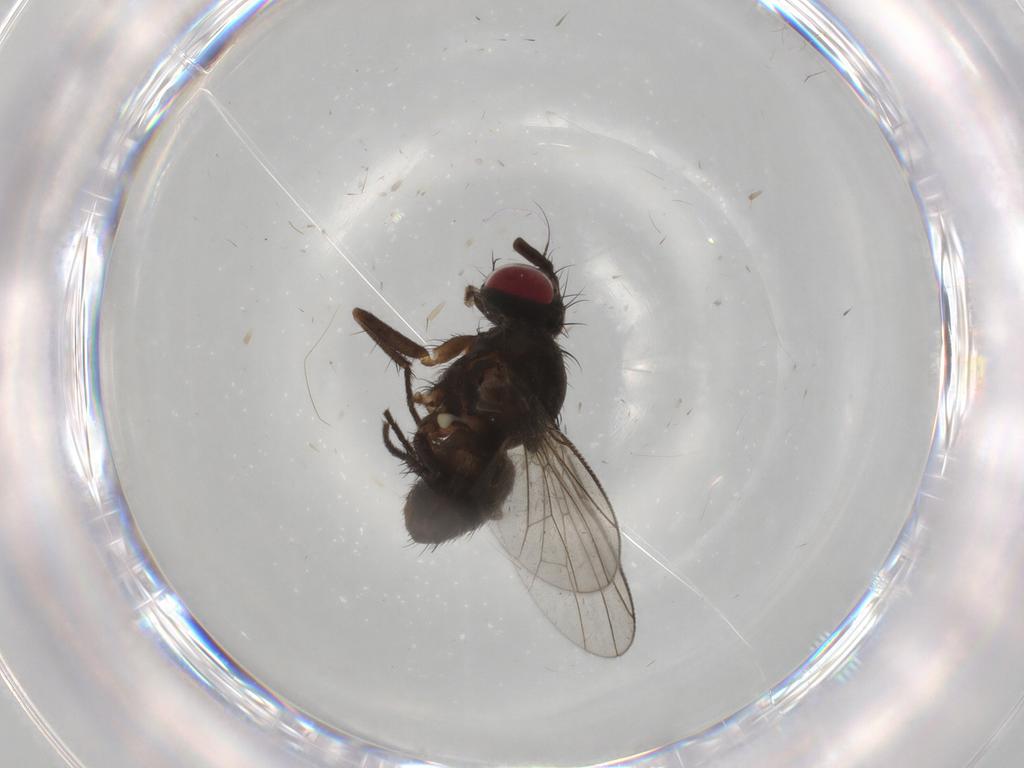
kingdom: Animalia
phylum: Arthropoda
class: Insecta
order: Diptera
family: Muscidae
